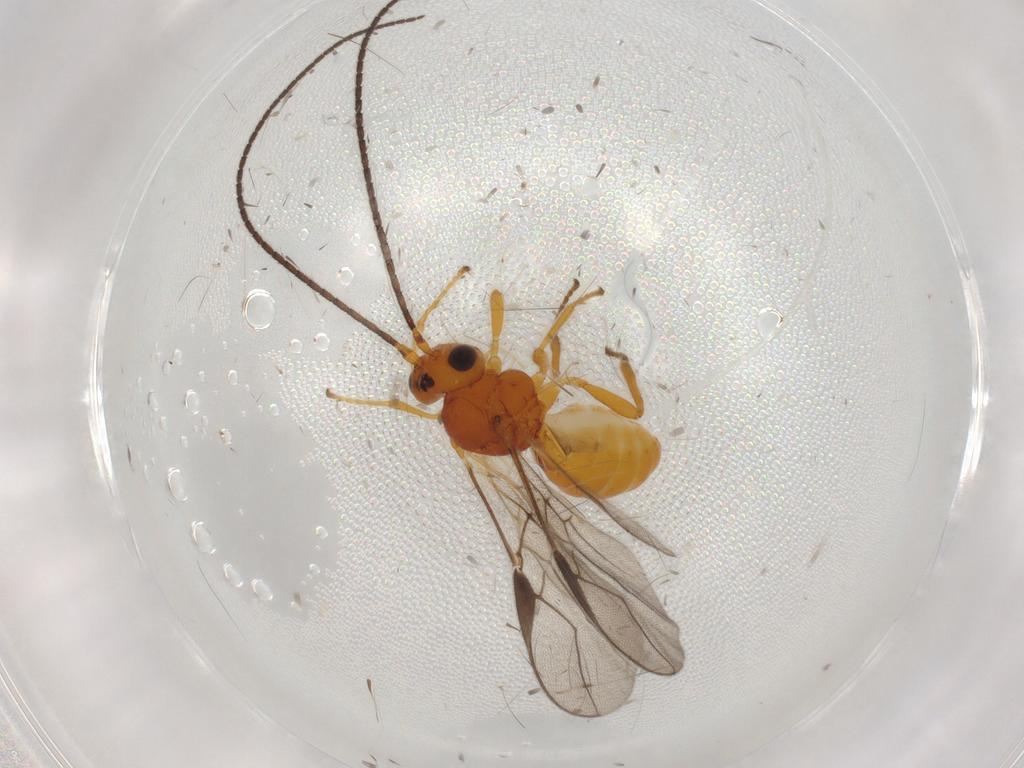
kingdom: Animalia
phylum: Arthropoda
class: Insecta
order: Hymenoptera
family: Braconidae
